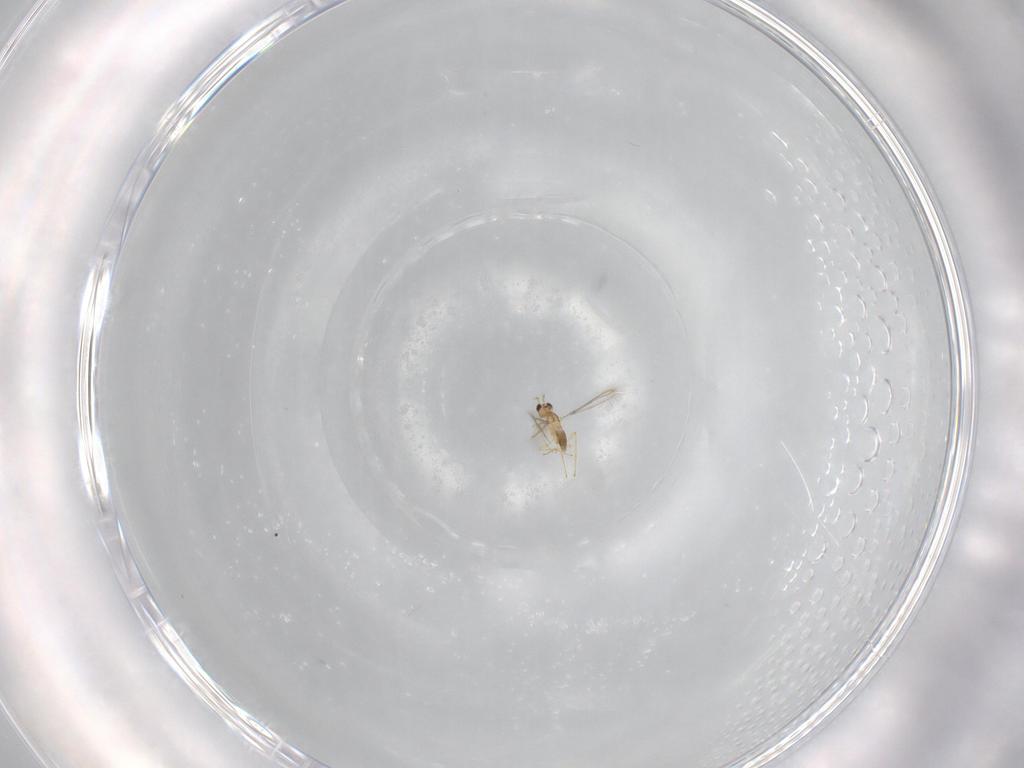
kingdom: Animalia
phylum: Arthropoda
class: Insecta
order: Hymenoptera
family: Mymaridae
